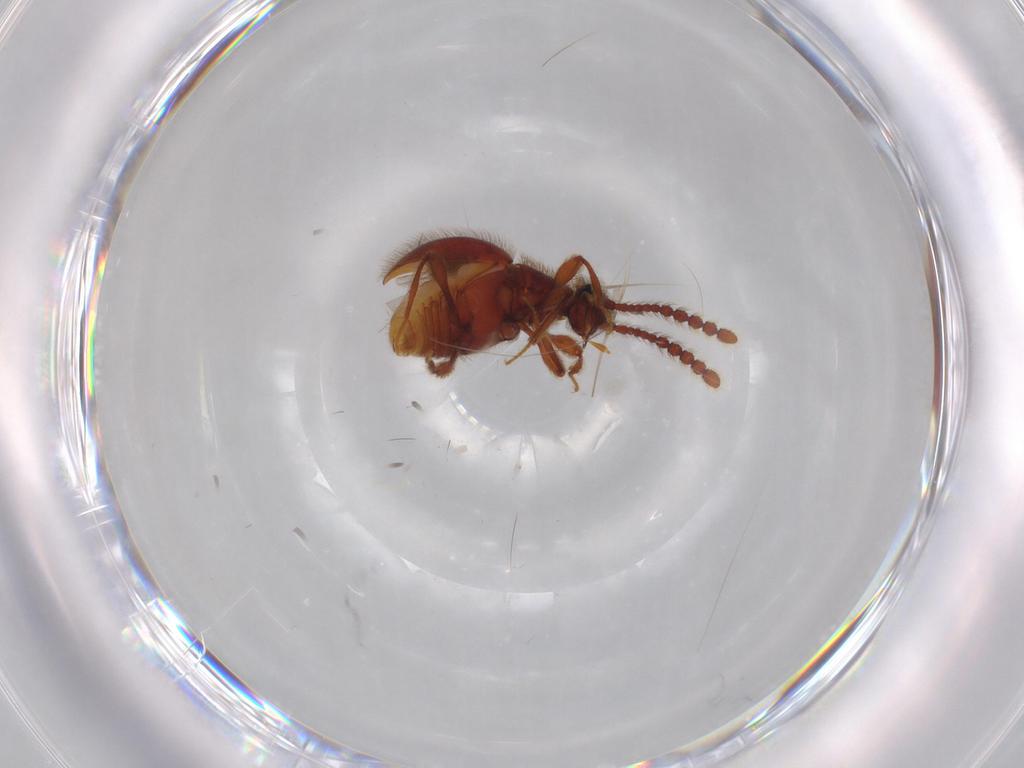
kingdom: Animalia
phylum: Arthropoda
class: Insecta
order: Coleoptera
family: Chrysomelidae
